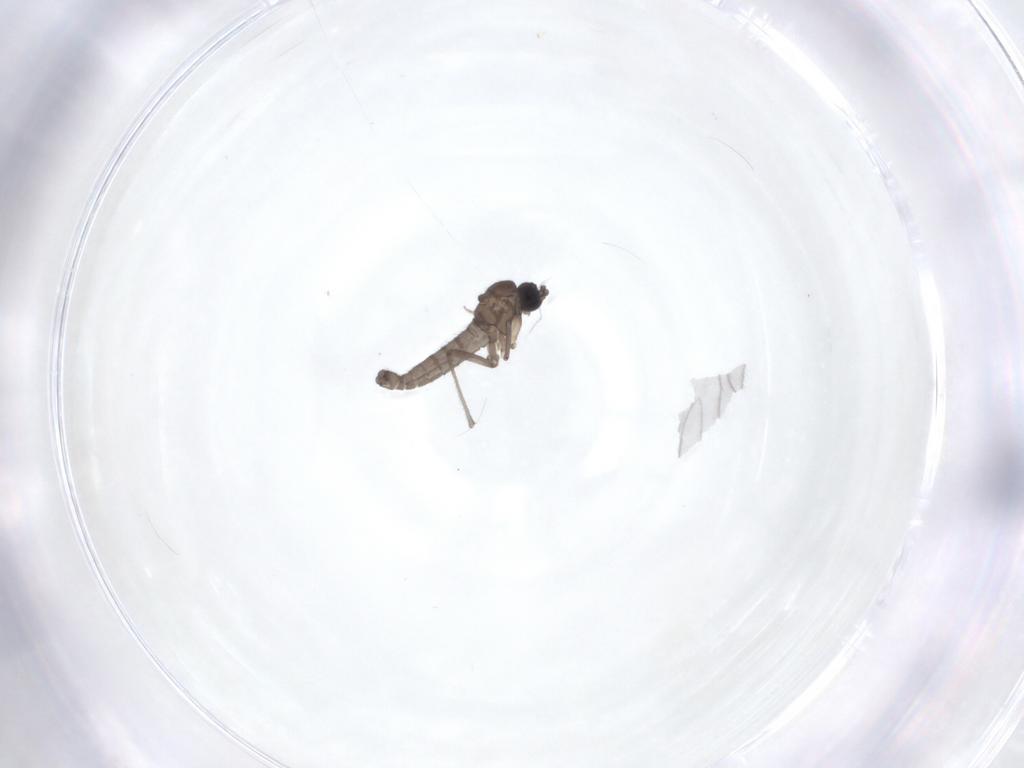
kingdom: Animalia
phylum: Arthropoda
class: Insecta
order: Diptera
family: Sciaridae
